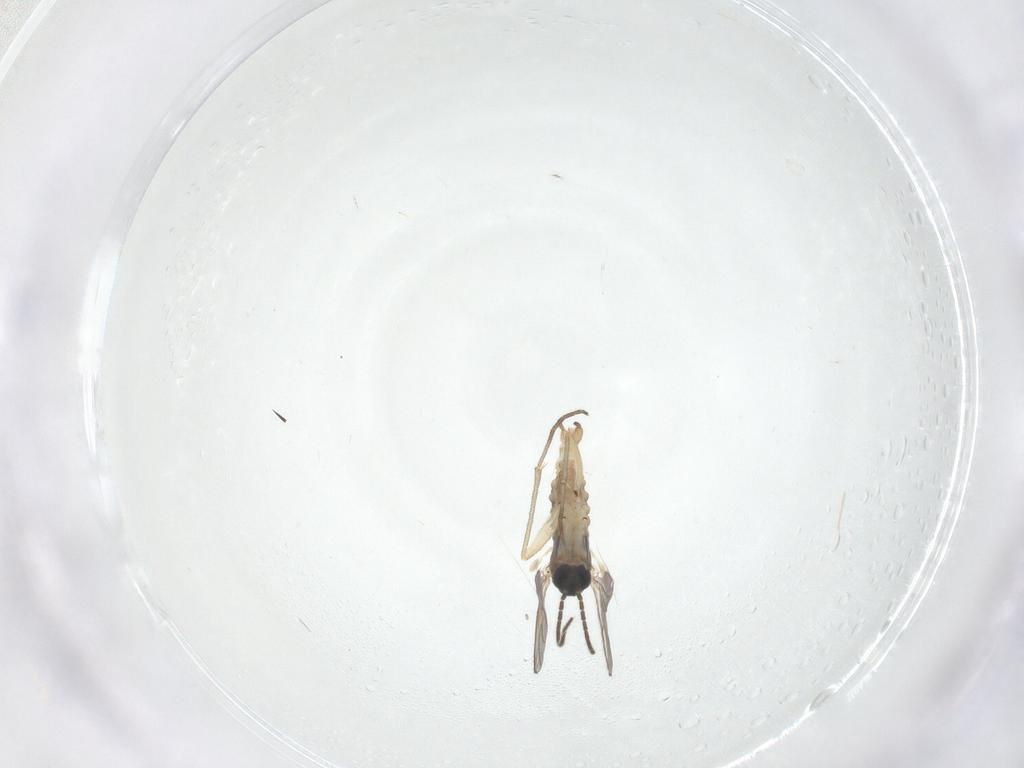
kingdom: Animalia
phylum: Arthropoda
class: Insecta
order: Diptera
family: Sciaridae
